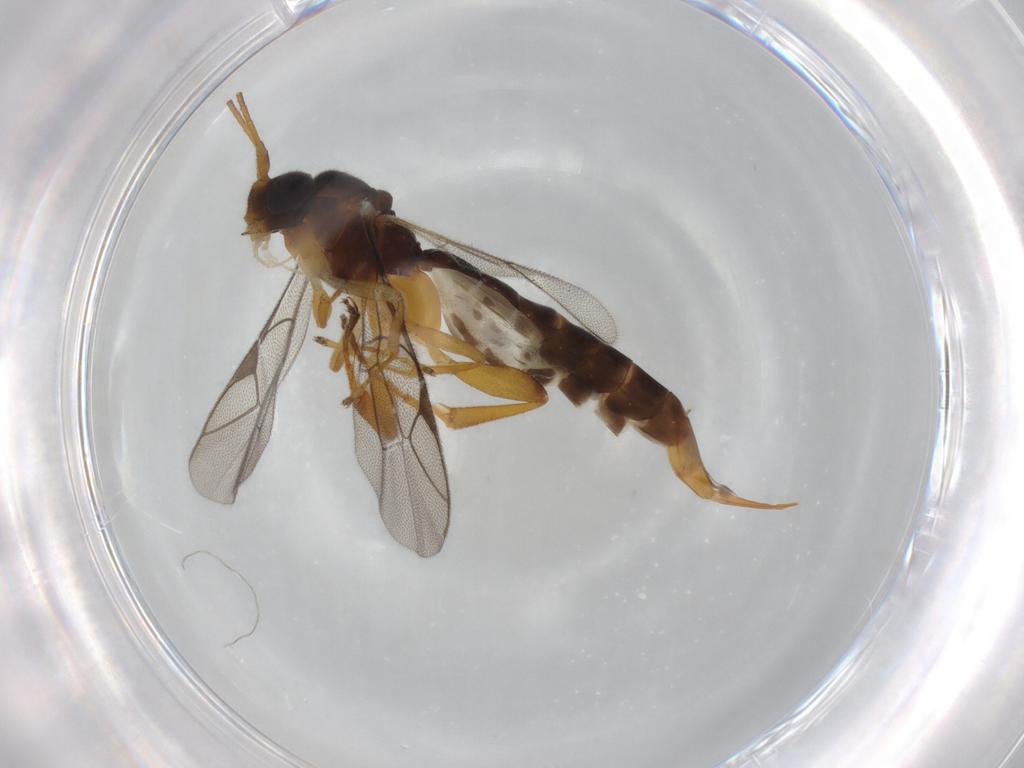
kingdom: Animalia
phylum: Arthropoda
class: Insecta
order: Hymenoptera
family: Ichneumonidae
